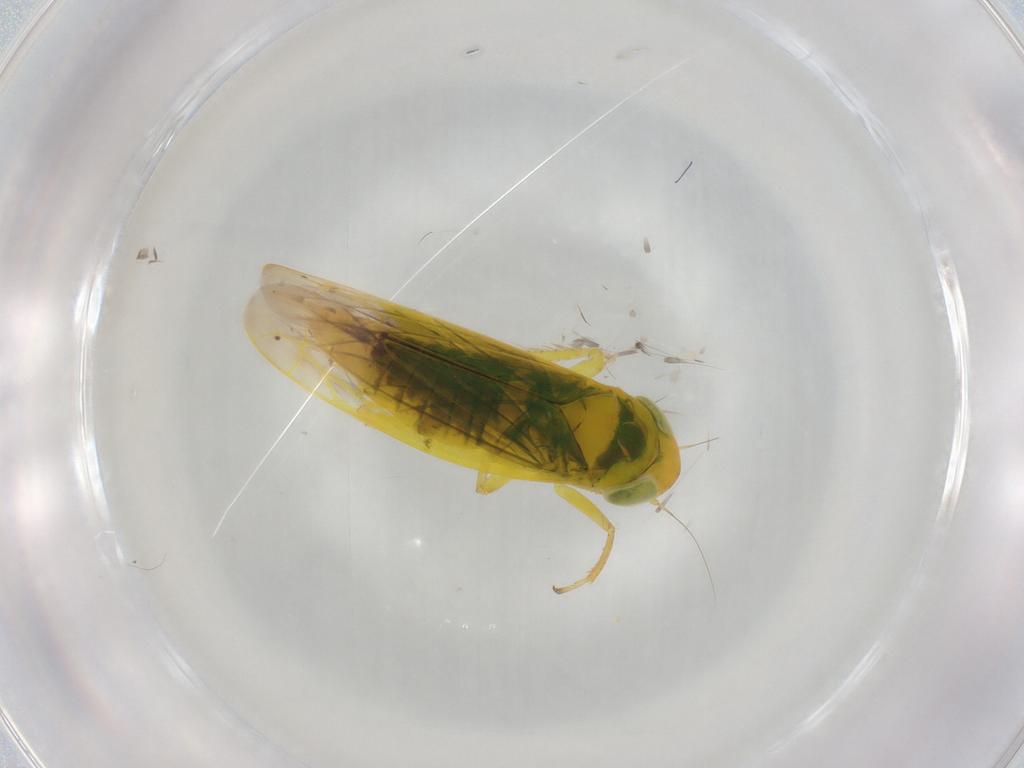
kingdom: Animalia
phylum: Arthropoda
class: Insecta
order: Hemiptera
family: Cicadellidae
